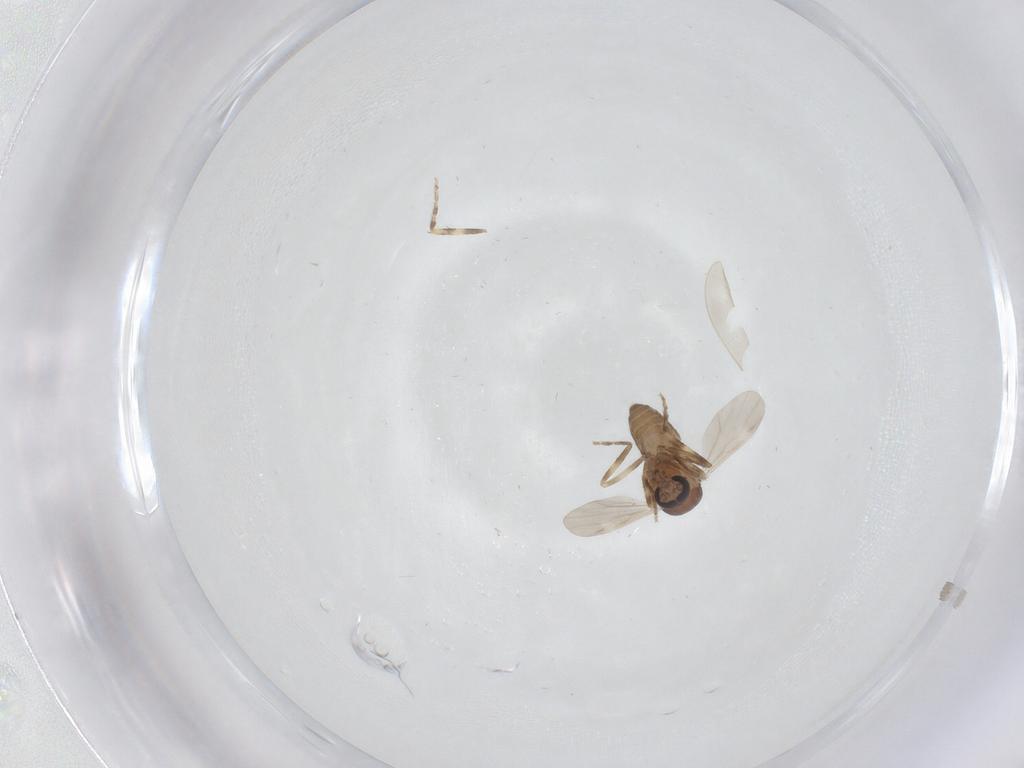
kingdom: Animalia
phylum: Arthropoda
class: Insecta
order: Diptera
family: Ceratopogonidae
